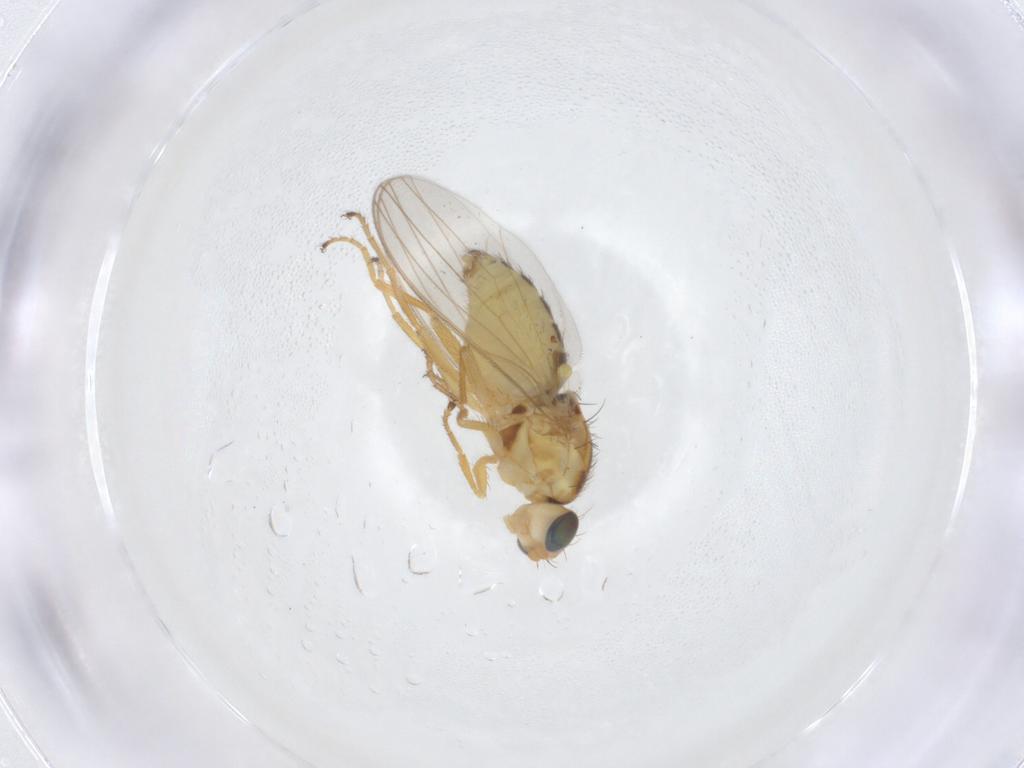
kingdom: Animalia
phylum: Arthropoda
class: Insecta
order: Diptera
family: Chyromyidae
